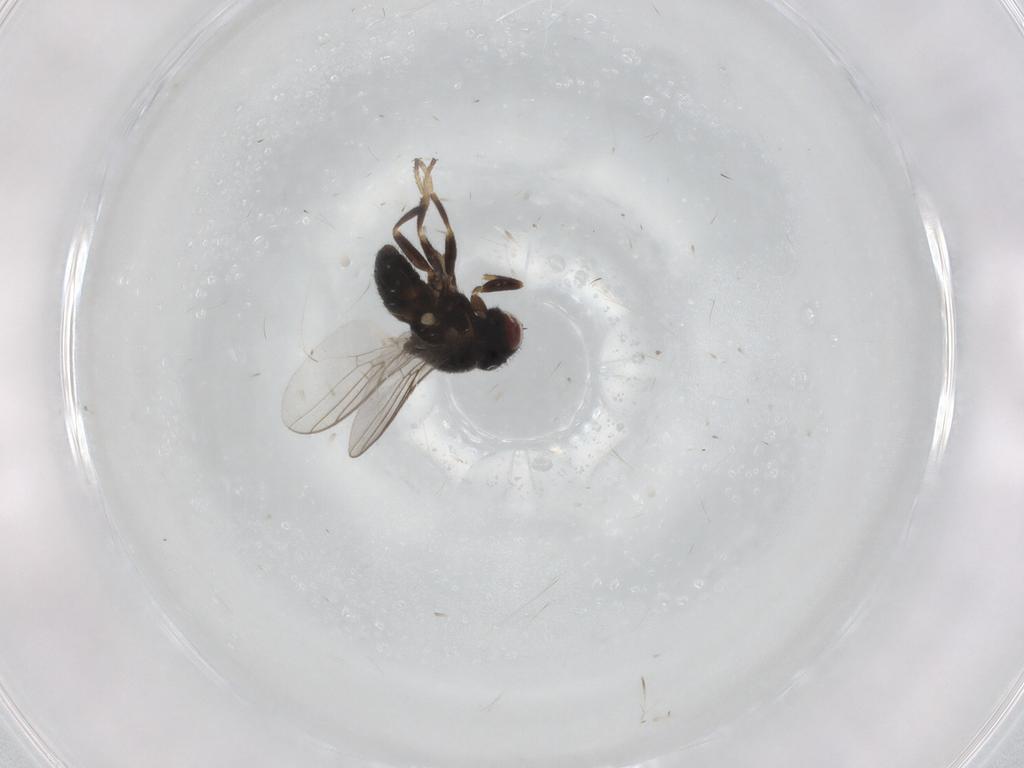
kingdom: Animalia
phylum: Arthropoda
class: Insecta
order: Diptera
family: Chloropidae
